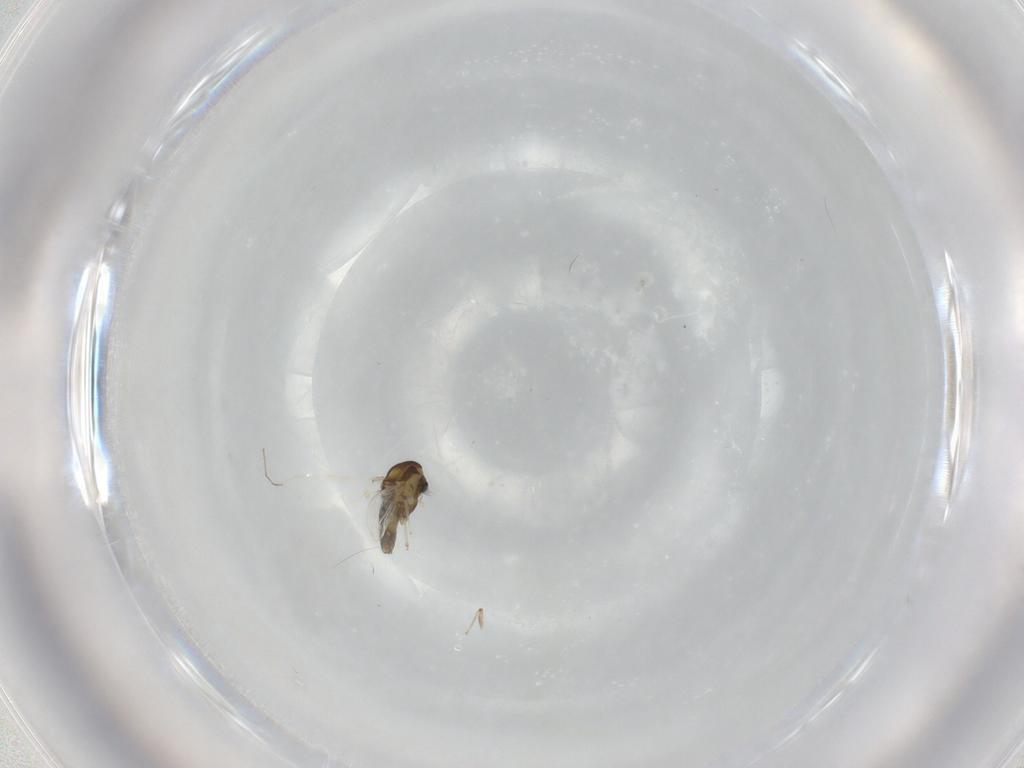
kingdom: Animalia
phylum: Arthropoda
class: Insecta
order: Diptera
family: Chironomidae
